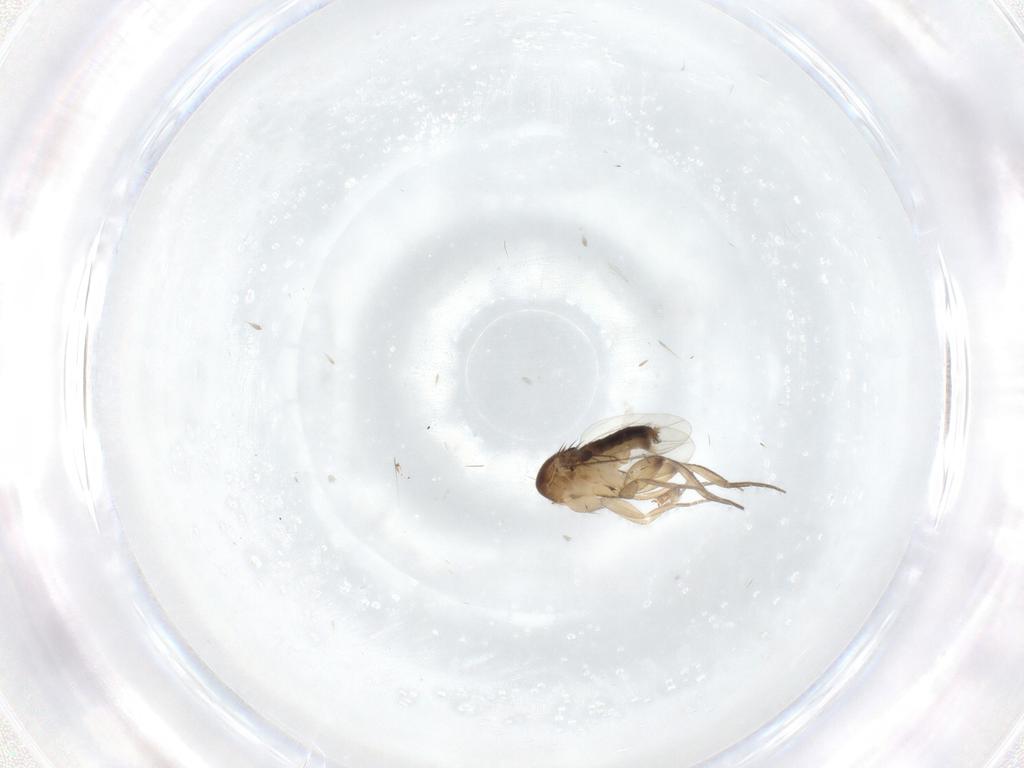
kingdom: Animalia
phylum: Arthropoda
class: Insecta
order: Diptera
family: Phoridae
